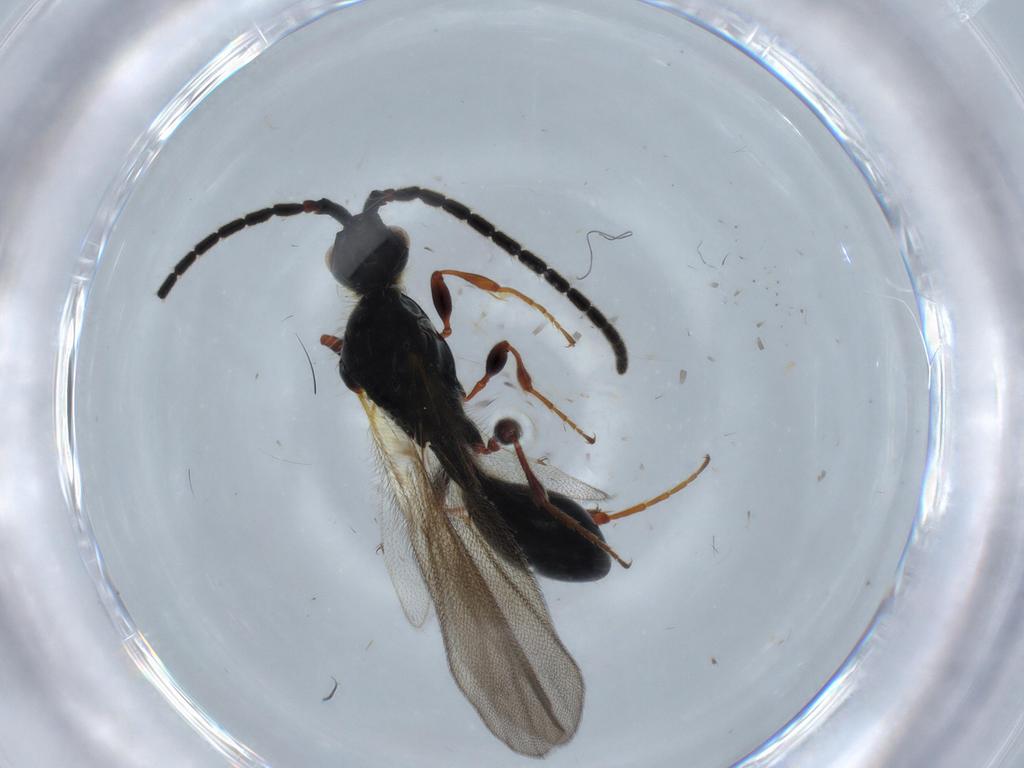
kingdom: Animalia
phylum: Arthropoda
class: Insecta
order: Hymenoptera
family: Diapriidae
